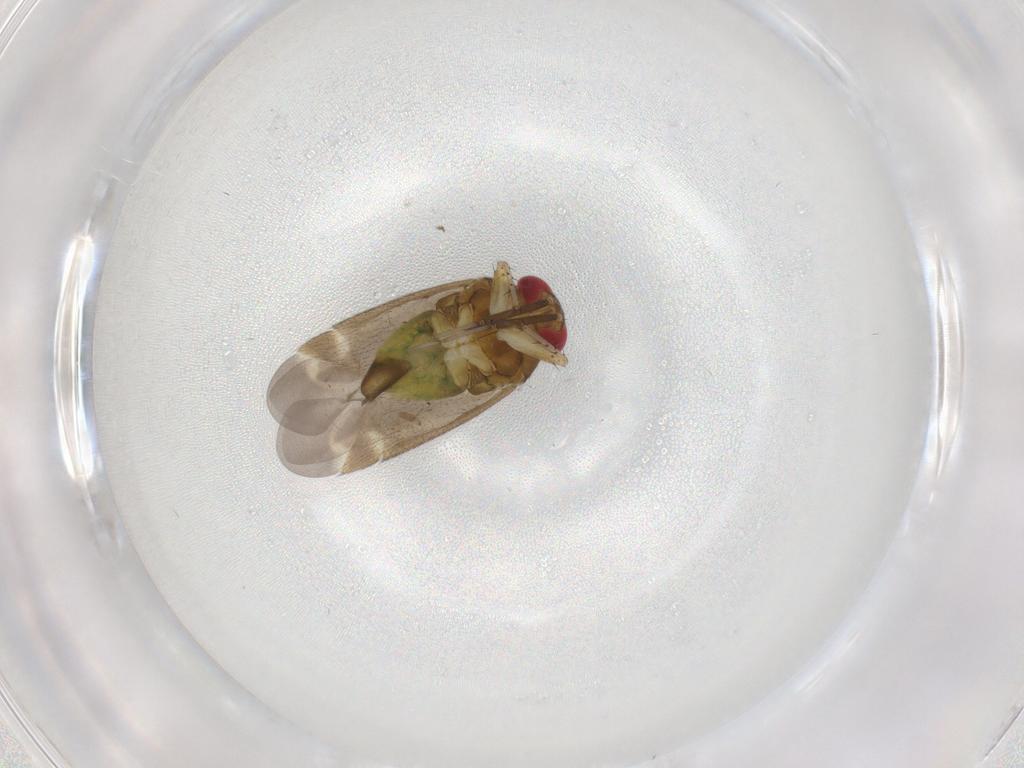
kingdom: Animalia
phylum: Arthropoda
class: Insecta
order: Hemiptera
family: Miridae
